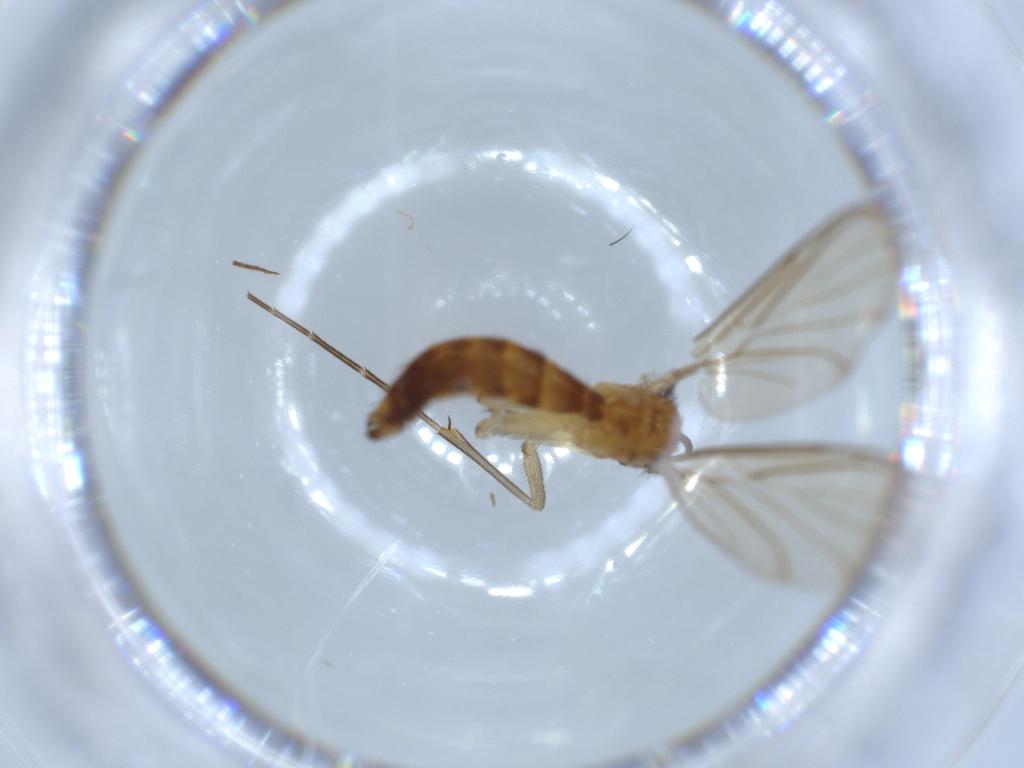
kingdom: Animalia
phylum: Arthropoda
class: Insecta
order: Diptera
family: Keroplatidae
